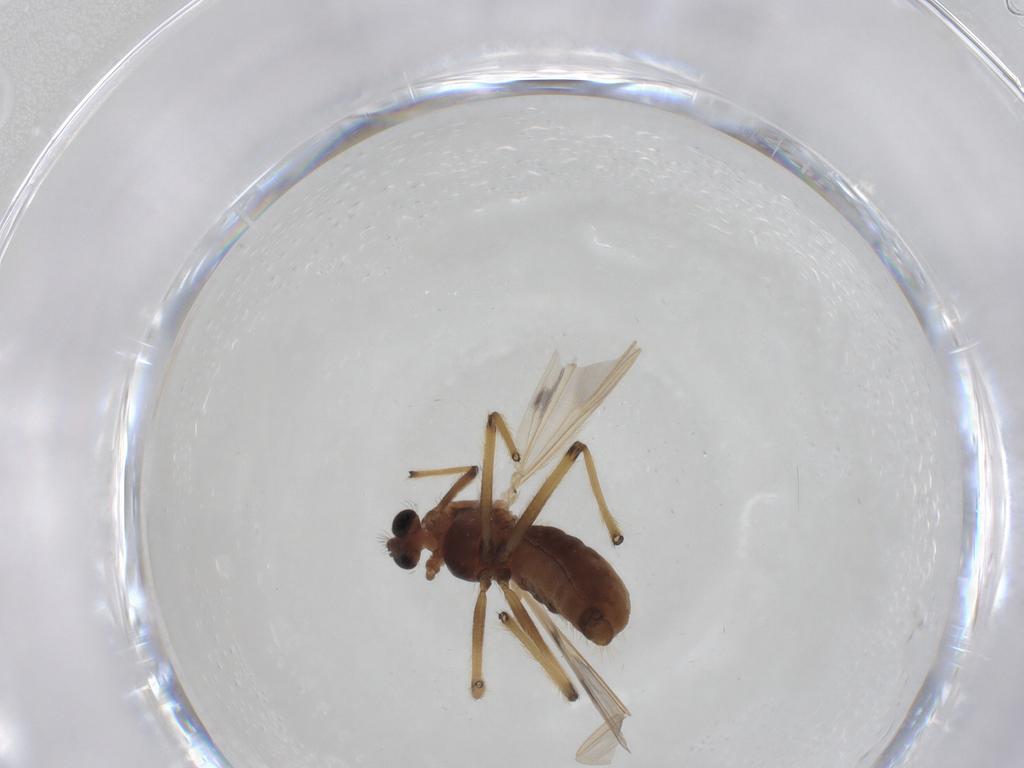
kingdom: Animalia
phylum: Arthropoda
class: Insecta
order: Diptera
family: Chironomidae
